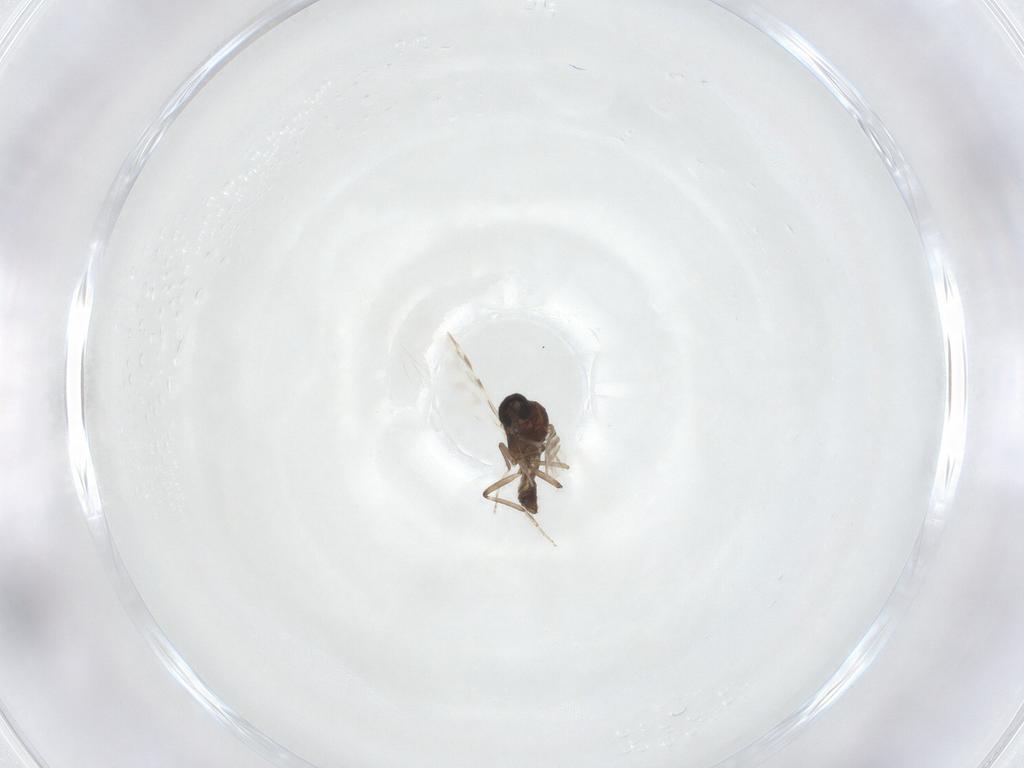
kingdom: Animalia
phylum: Arthropoda
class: Insecta
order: Diptera
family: Ceratopogonidae
